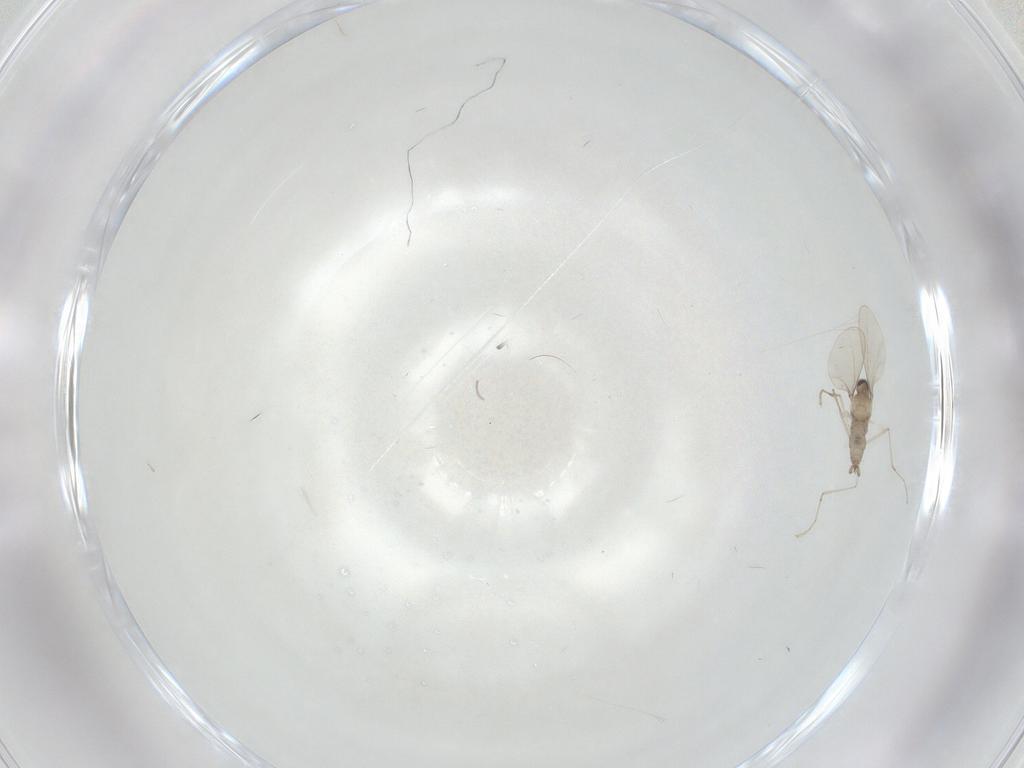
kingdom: Animalia
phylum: Arthropoda
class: Insecta
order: Diptera
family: Cecidomyiidae
